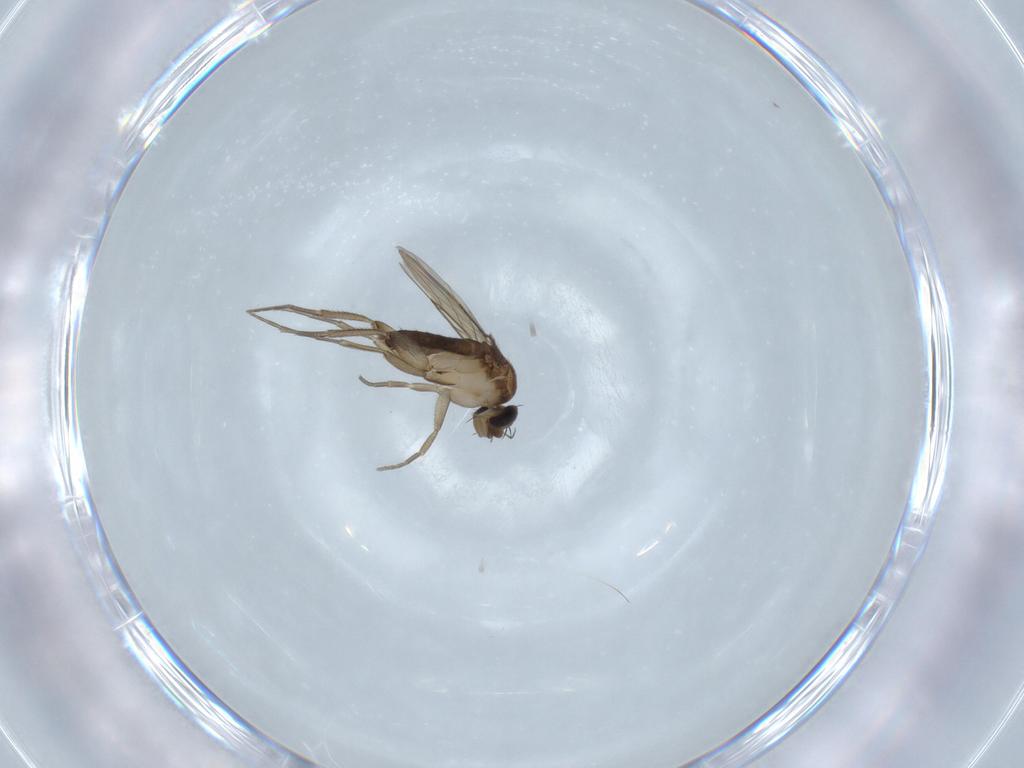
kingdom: Animalia
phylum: Arthropoda
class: Insecta
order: Diptera
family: Phoridae
